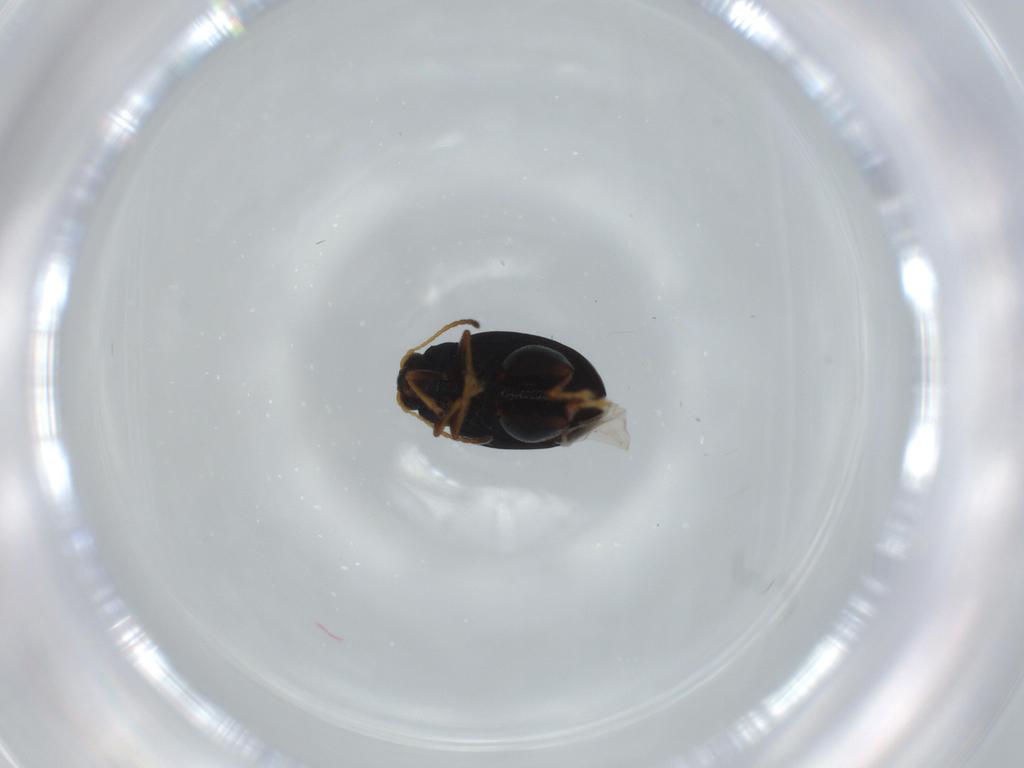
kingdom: Animalia
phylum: Arthropoda
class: Insecta
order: Coleoptera
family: Chrysomelidae
